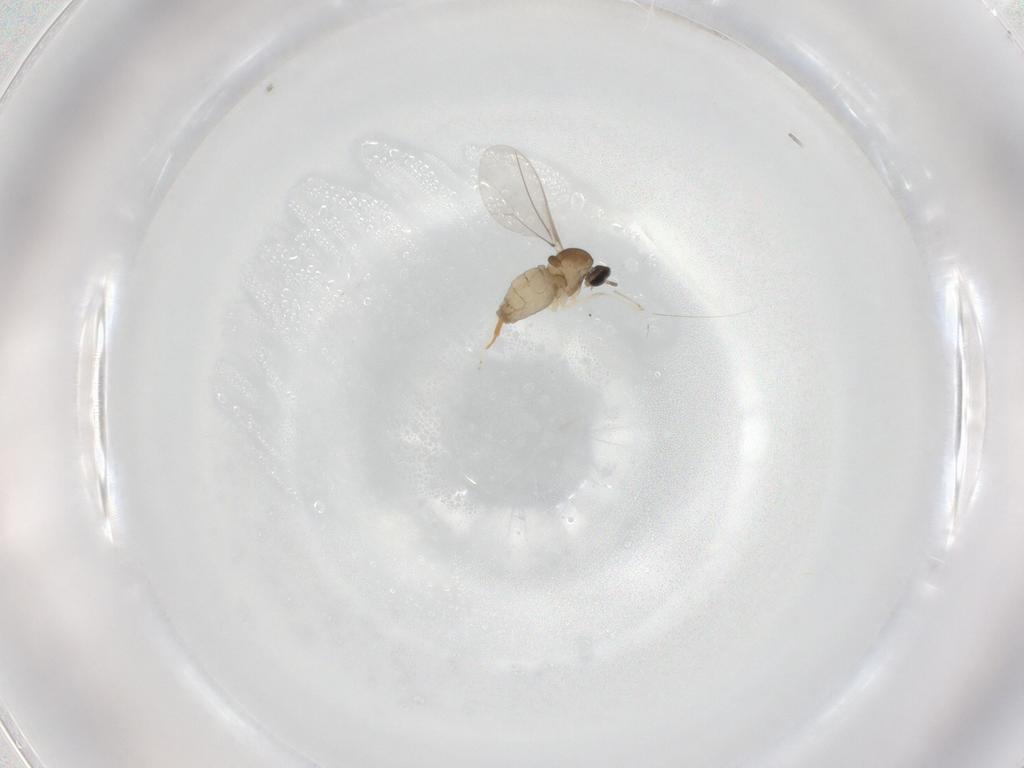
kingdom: Animalia
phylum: Arthropoda
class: Insecta
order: Diptera
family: Cecidomyiidae
